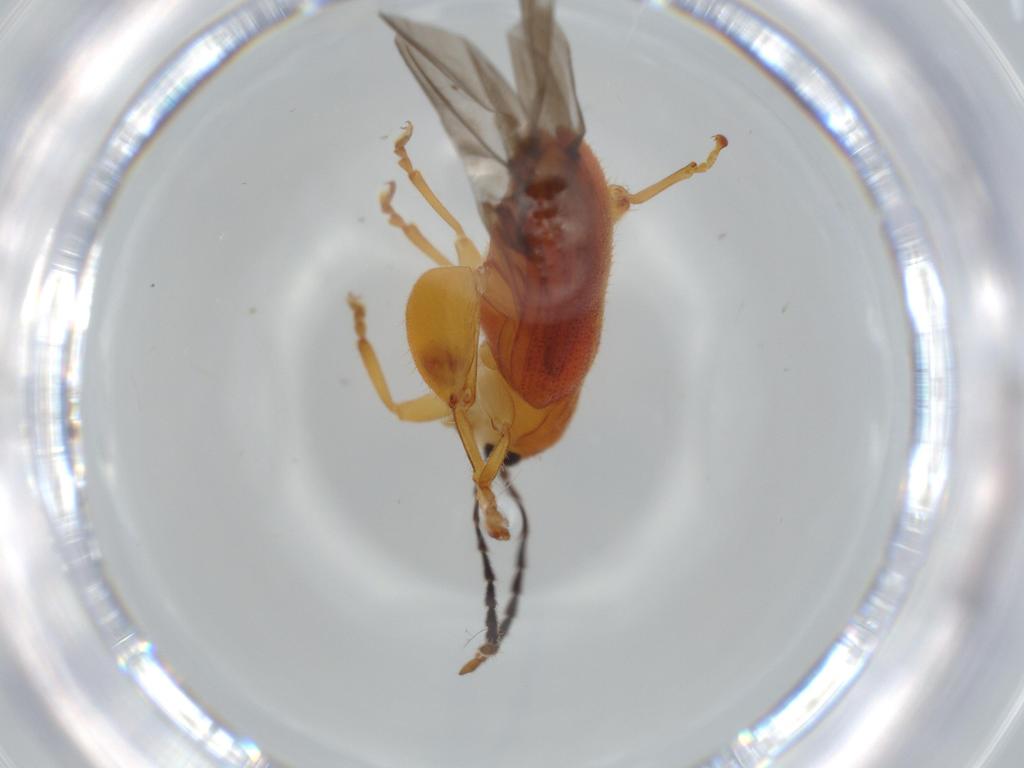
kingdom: Animalia
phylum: Arthropoda
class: Insecta
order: Coleoptera
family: Chrysomelidae
